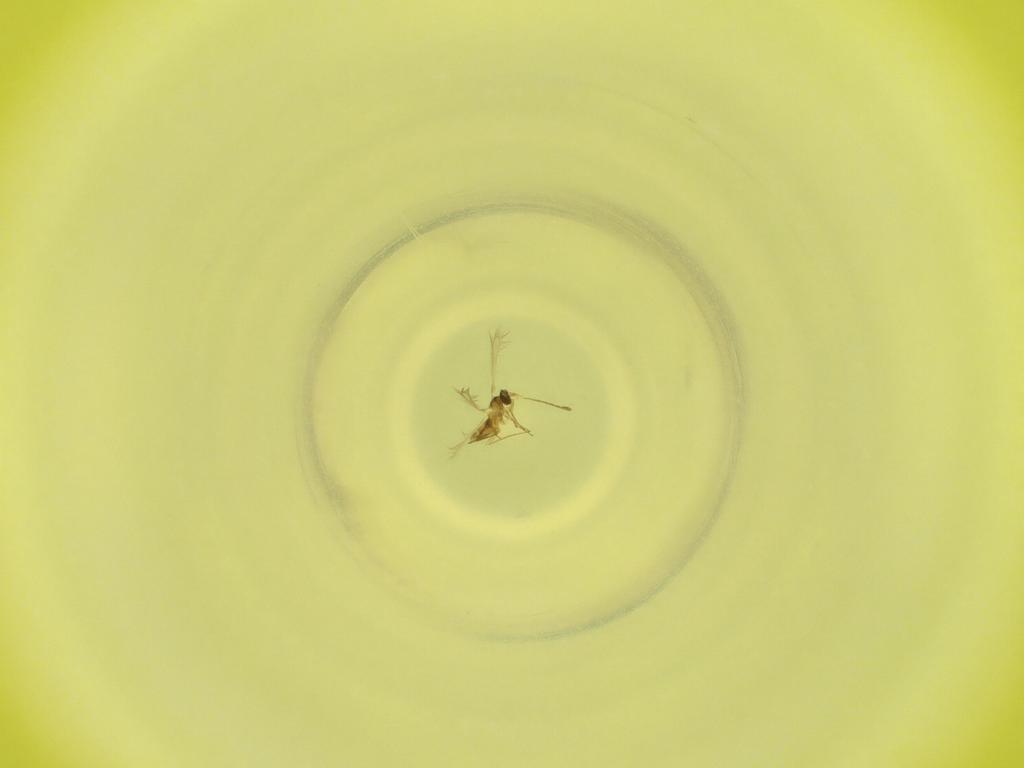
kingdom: Animalia
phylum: Arthropoda
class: Insecta
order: Diptera
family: Cecidomyiidae
